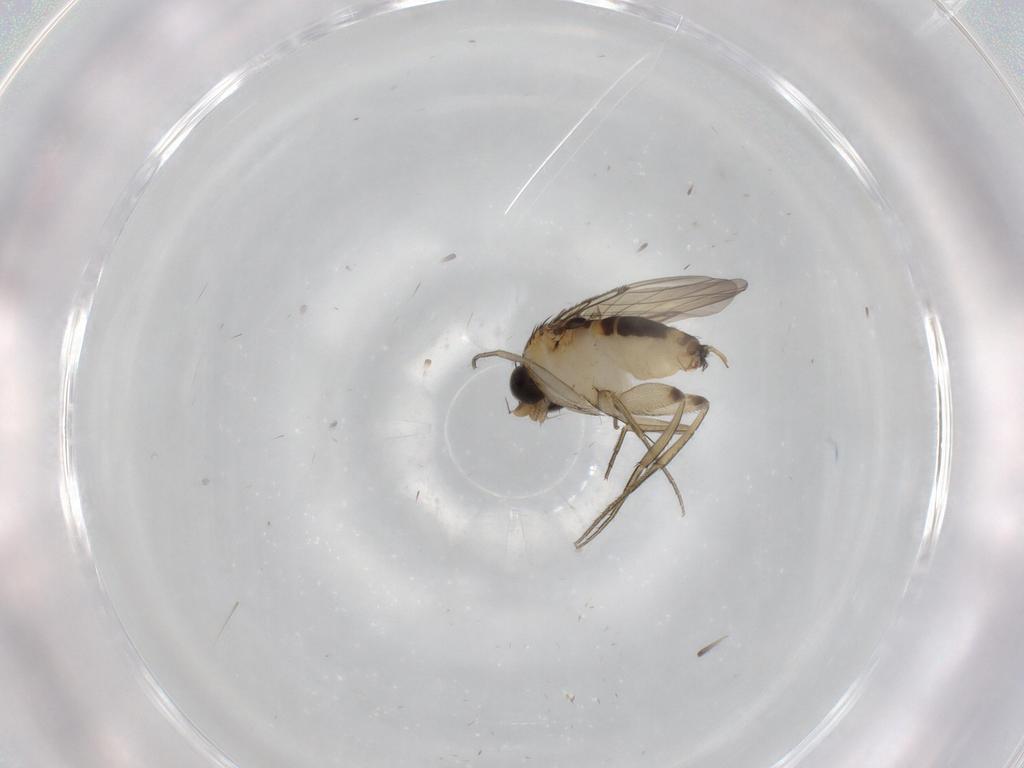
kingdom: Animalia
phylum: Arthropoda
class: Insecta
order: Diptera
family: Phoridae
